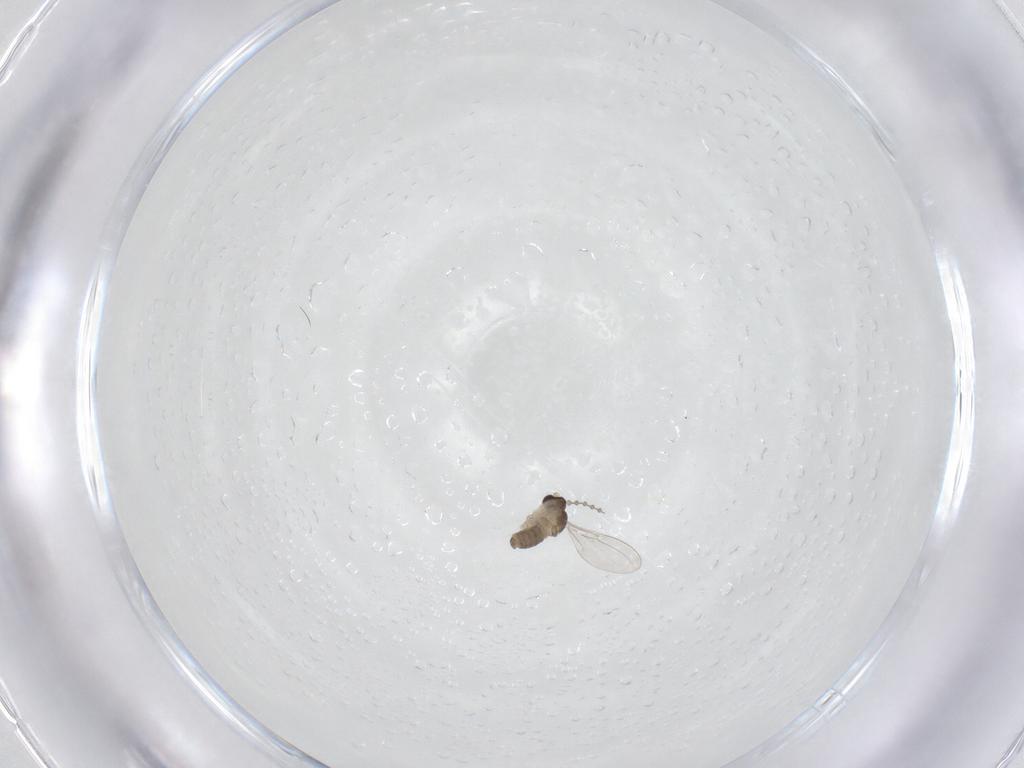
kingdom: Animalia
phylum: Arthropoda
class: Insecta
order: Diptera
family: Cecidomyiidae
